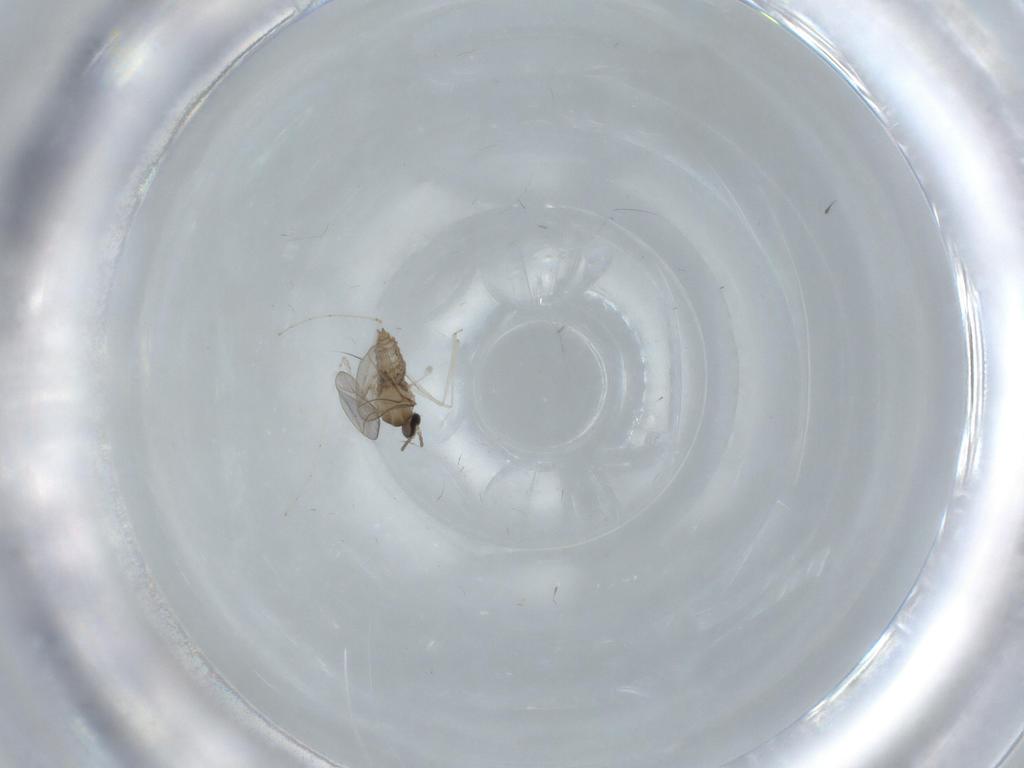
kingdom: Animalia
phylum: Arthropoda
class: Insecta
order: Diptera
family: Cecidomyiidae
